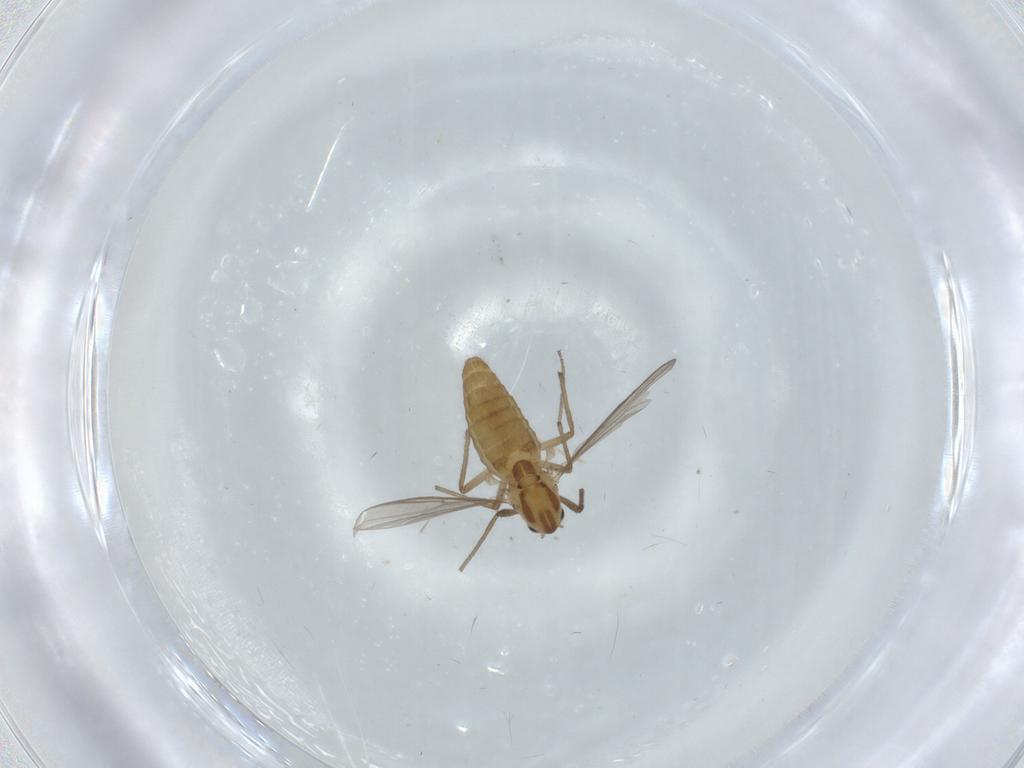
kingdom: Animalia
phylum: Arthropoda
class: Insecta
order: Diptera
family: Chironomidae
